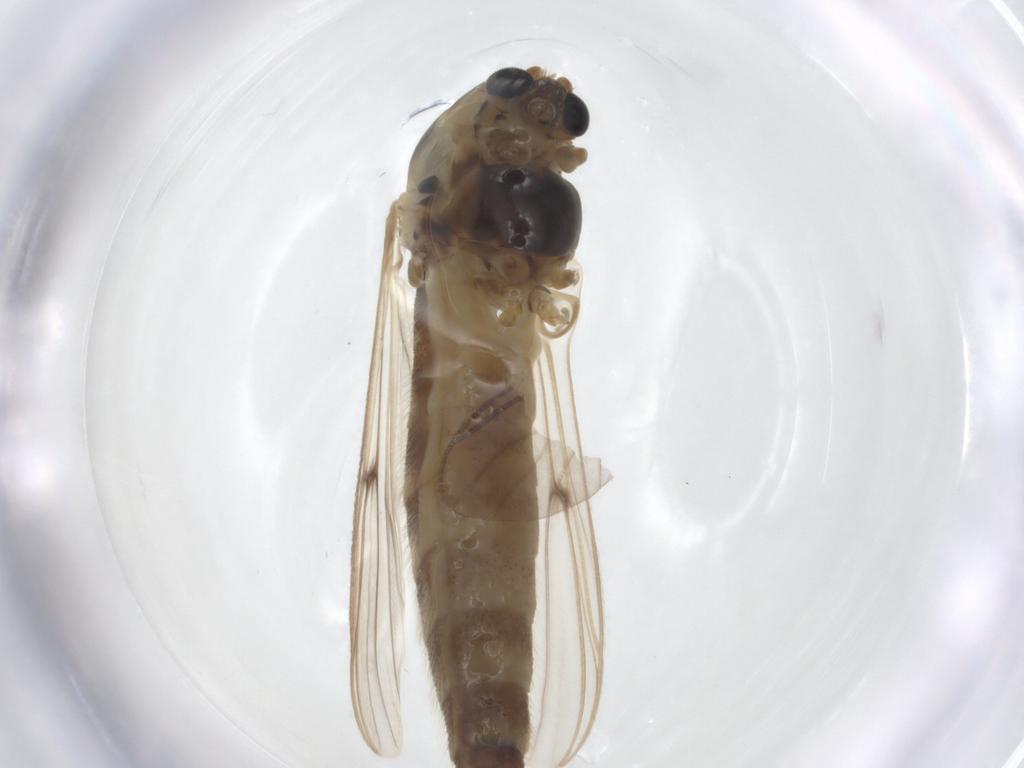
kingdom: Animalia
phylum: Arthropoda
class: Insecta
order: Diptera
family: Chironomidae
